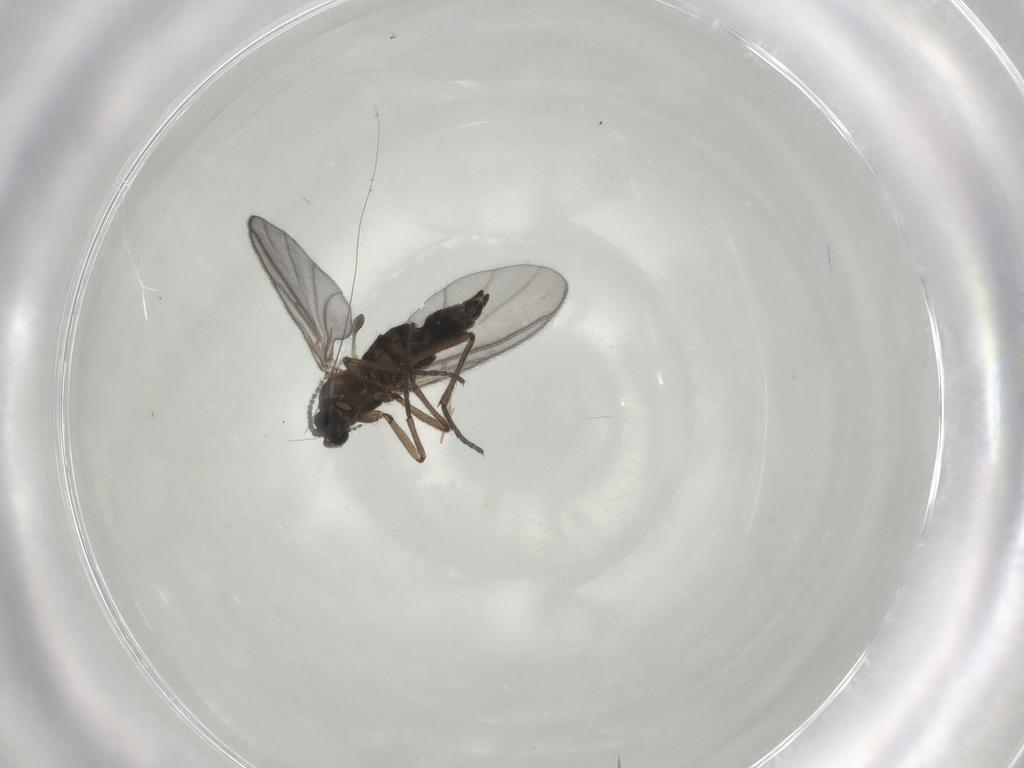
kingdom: Animalia
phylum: Arthropoda
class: Insecta
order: Diptera
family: Sciaridae
